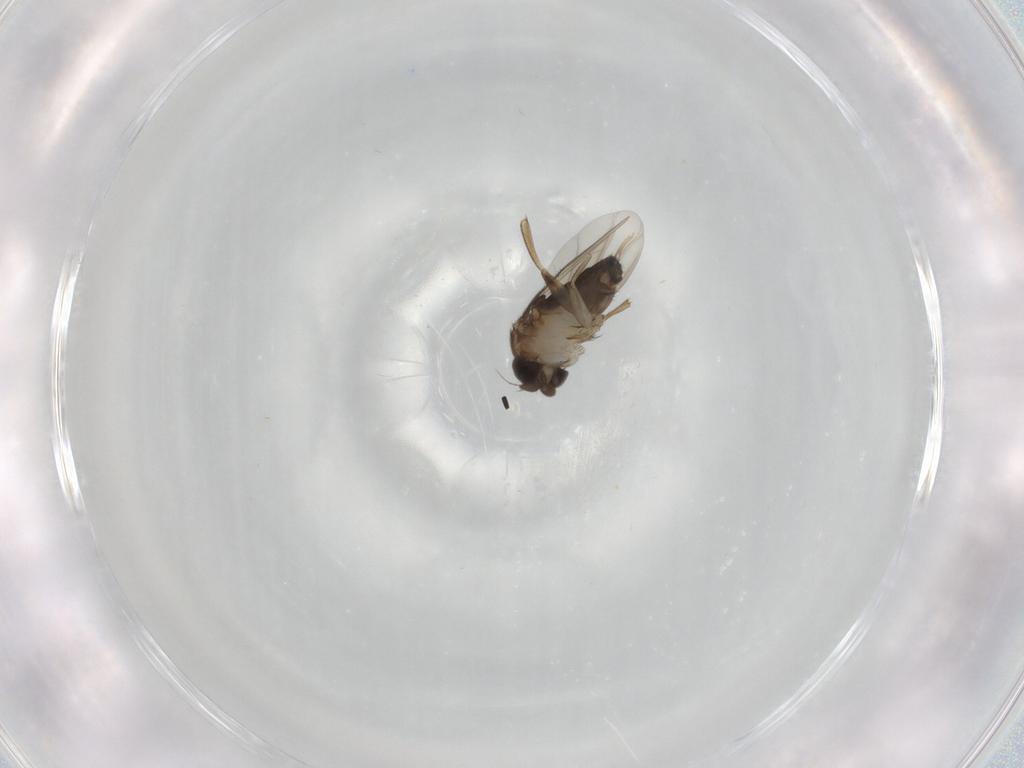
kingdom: Animalia
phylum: Arthropoda
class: Insecta
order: Diptera
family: Phoridae
